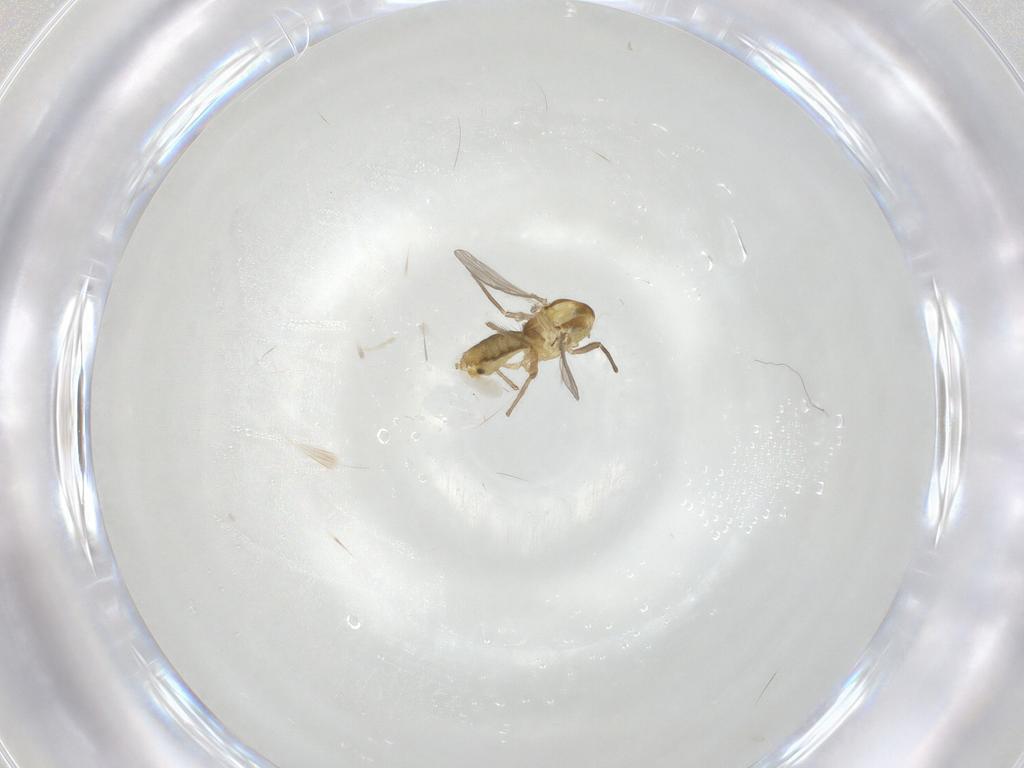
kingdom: Animalia
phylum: Arthropoda
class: Insecta
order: Diptera
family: Chironomidae
